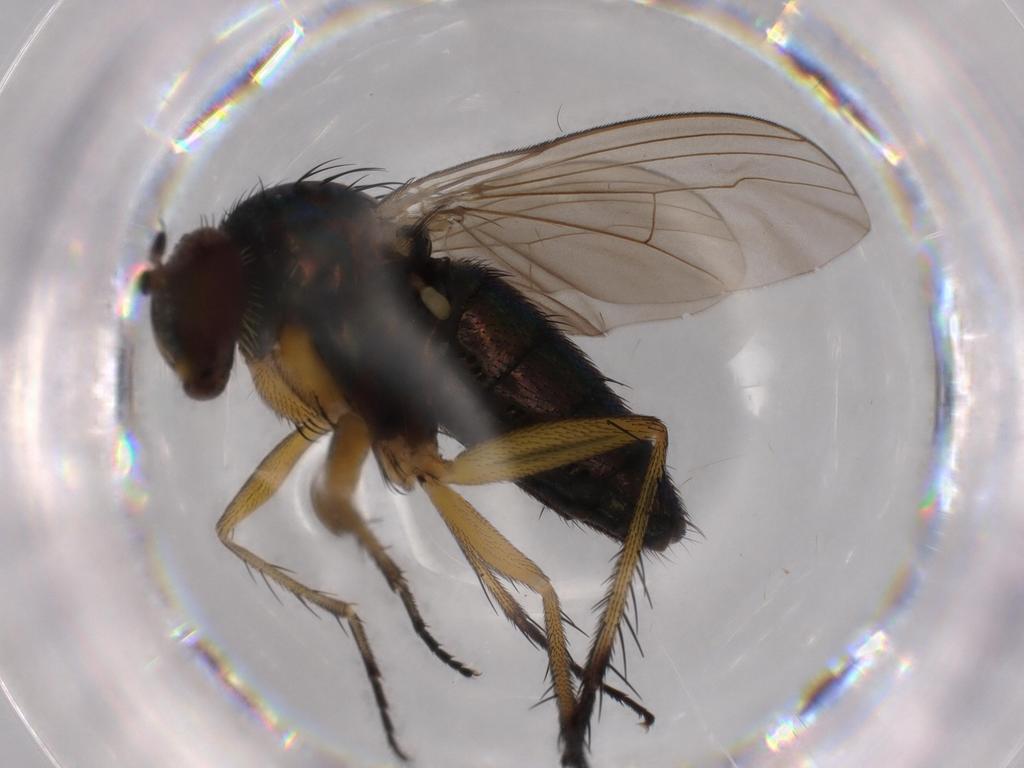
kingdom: Animalia
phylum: Arthropoda
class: Insecta
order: Diptera
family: Dolichopodidae
